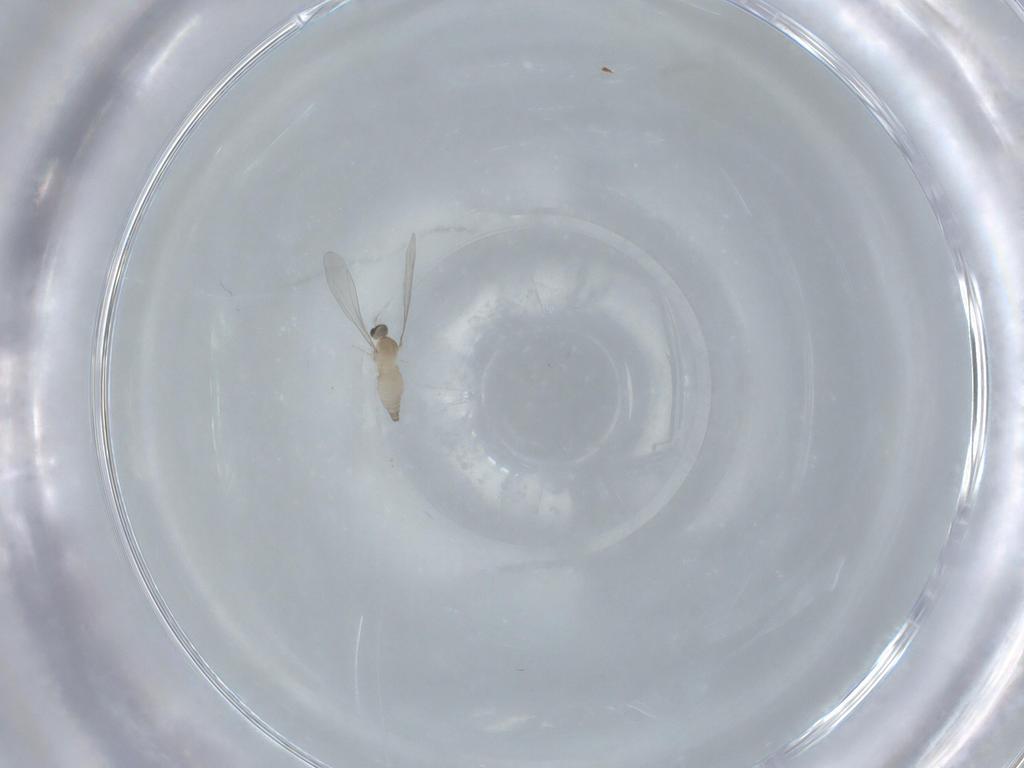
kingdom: Animalia
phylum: Arthropoda
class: Insecta
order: Diptera
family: Cecidomyiidae
